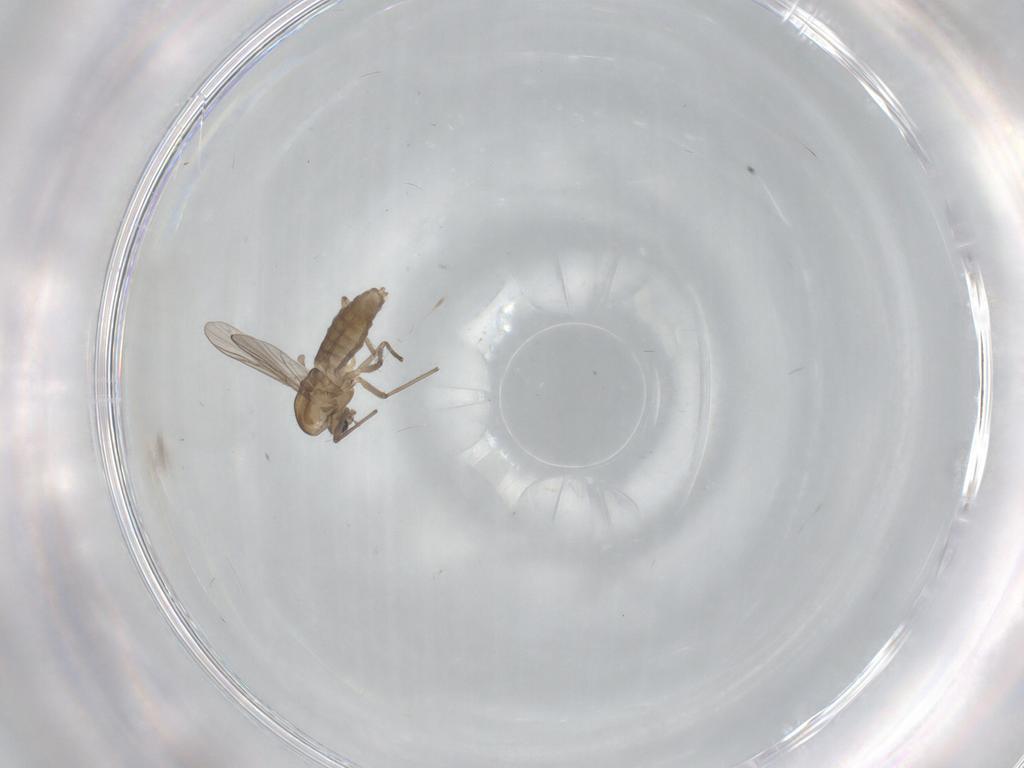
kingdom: Animalia
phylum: Arthropoda
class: Insecta
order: Diptera
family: Chironomidae
